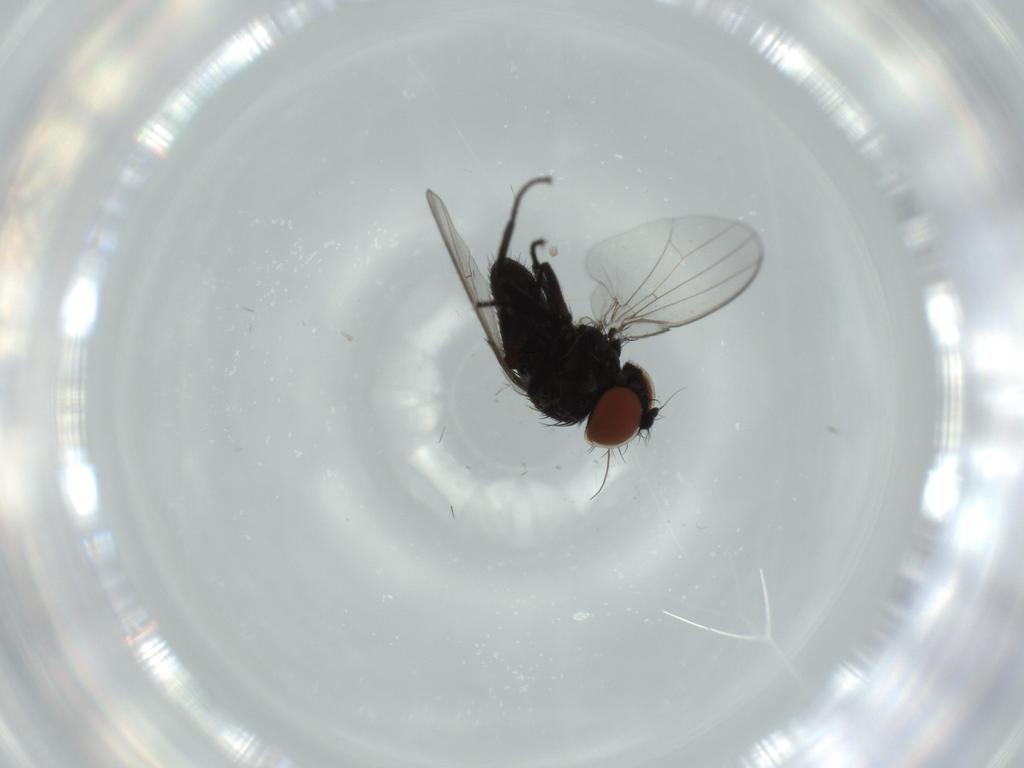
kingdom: Animalia
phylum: Arthropoda
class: Insecta
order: Diptera
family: Milichiidae
